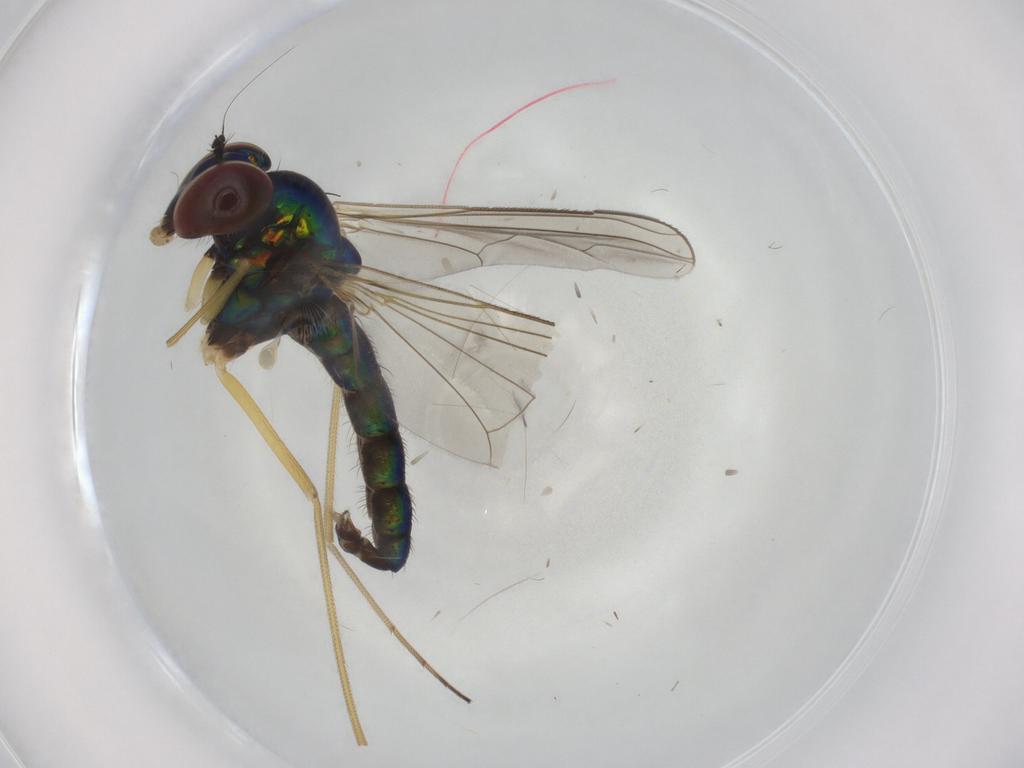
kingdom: Animalia
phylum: Arthropoda
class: Insecta
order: Diptera
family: Dolichopodidae
